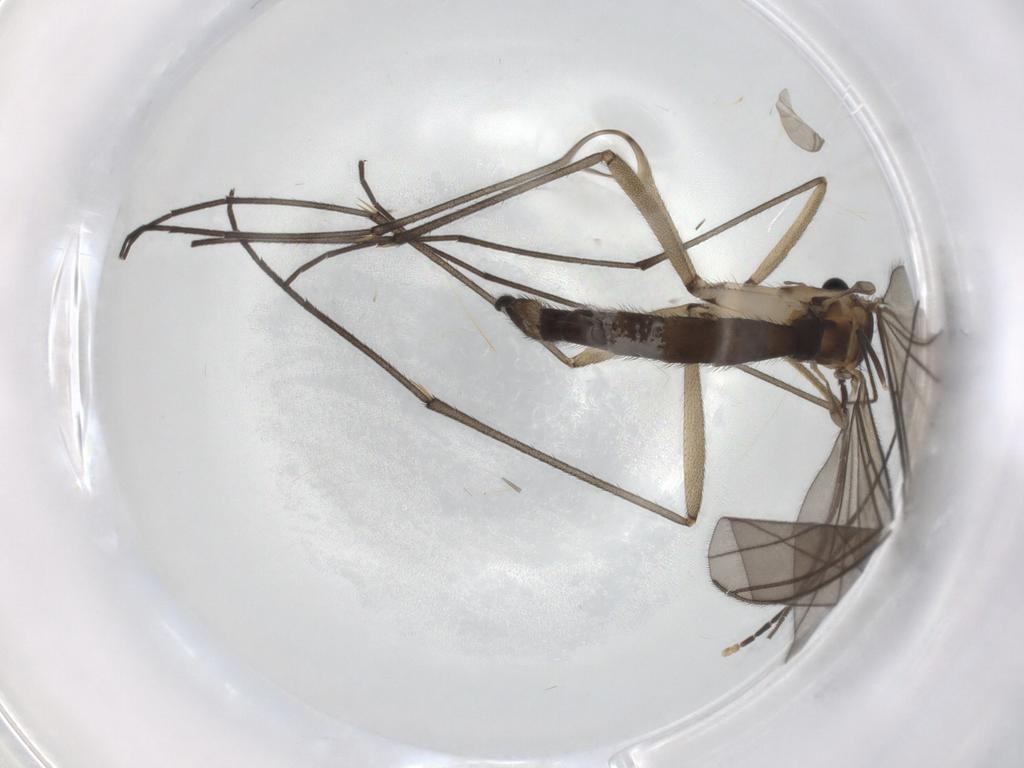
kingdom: Animalia
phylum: Arthropoda
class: Insecta
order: Diptera
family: Sciaridae
